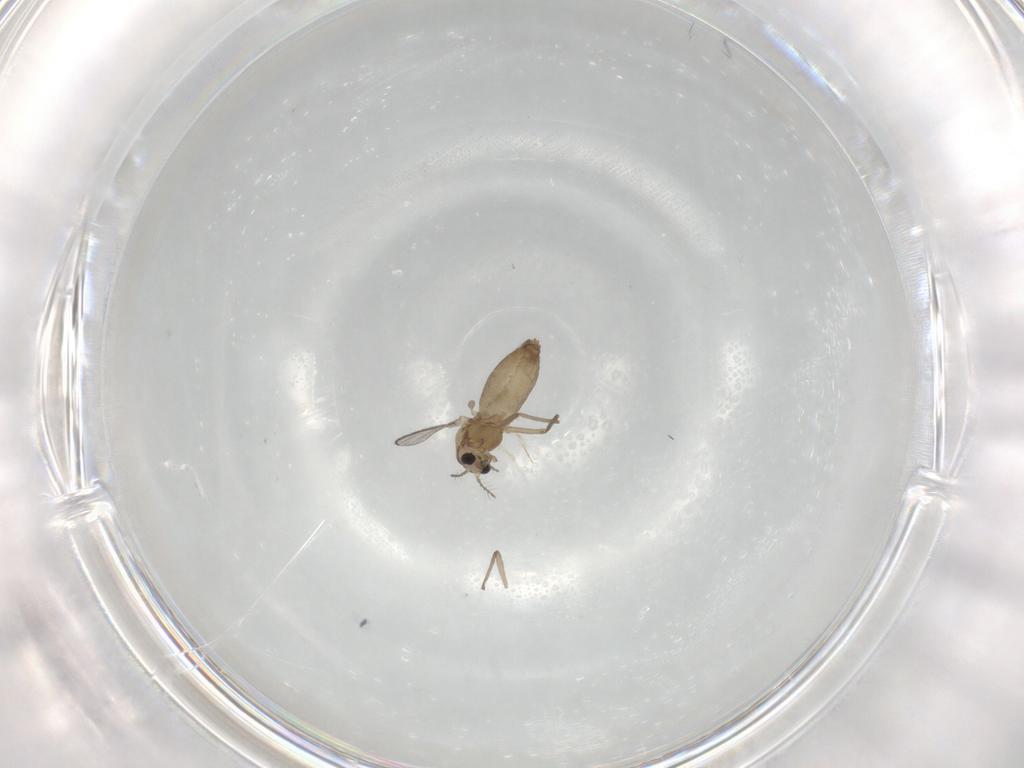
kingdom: Animalia
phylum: Arthropoda
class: Insecta
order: Diptera
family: Chironomidae
